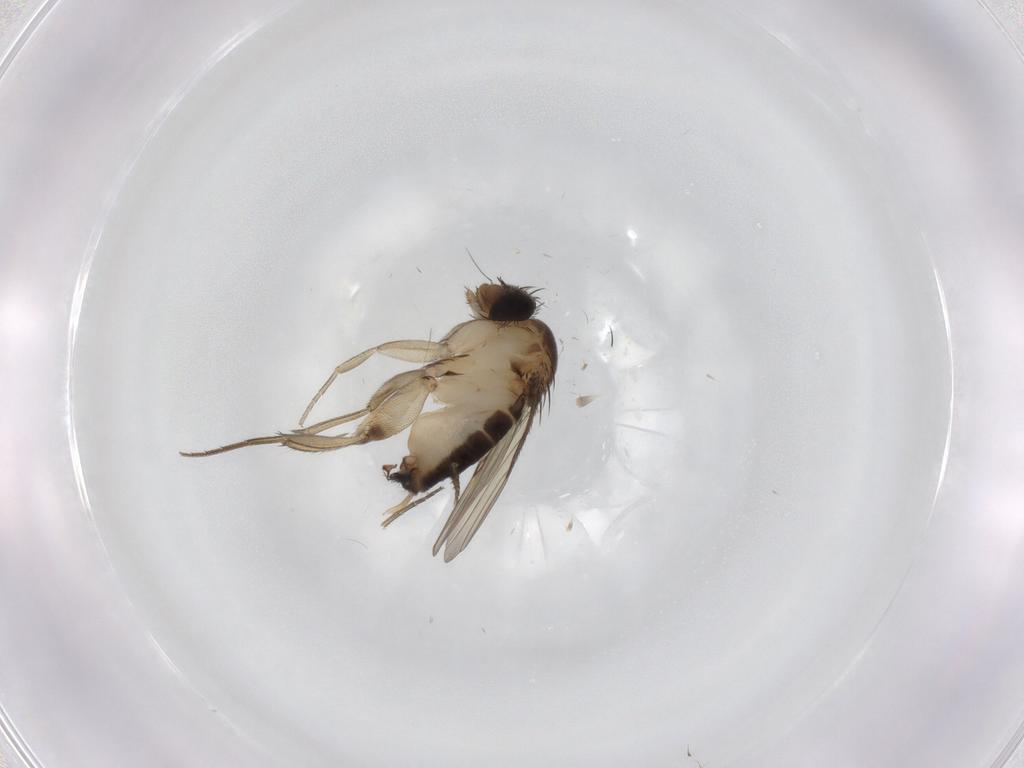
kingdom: Animalia
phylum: Arthropoda
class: Insecta
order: Diptera
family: Phoridae
